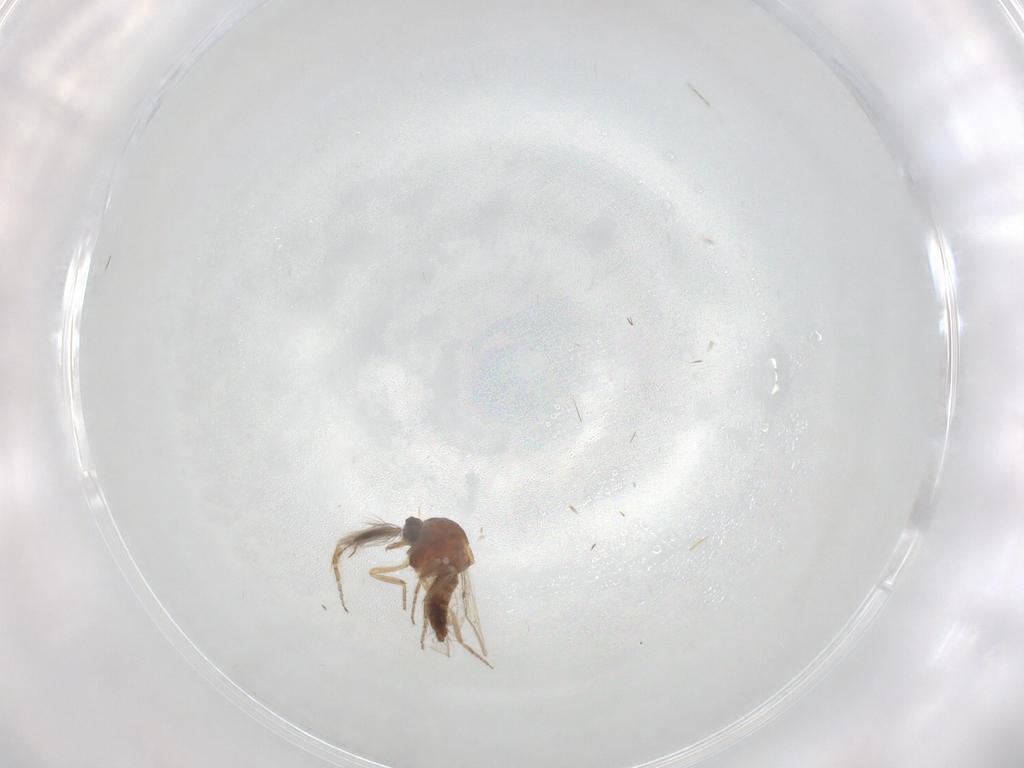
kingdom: Animalia
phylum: Arthropoda
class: Insecta
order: Diptera
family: Ceratopogonidae
